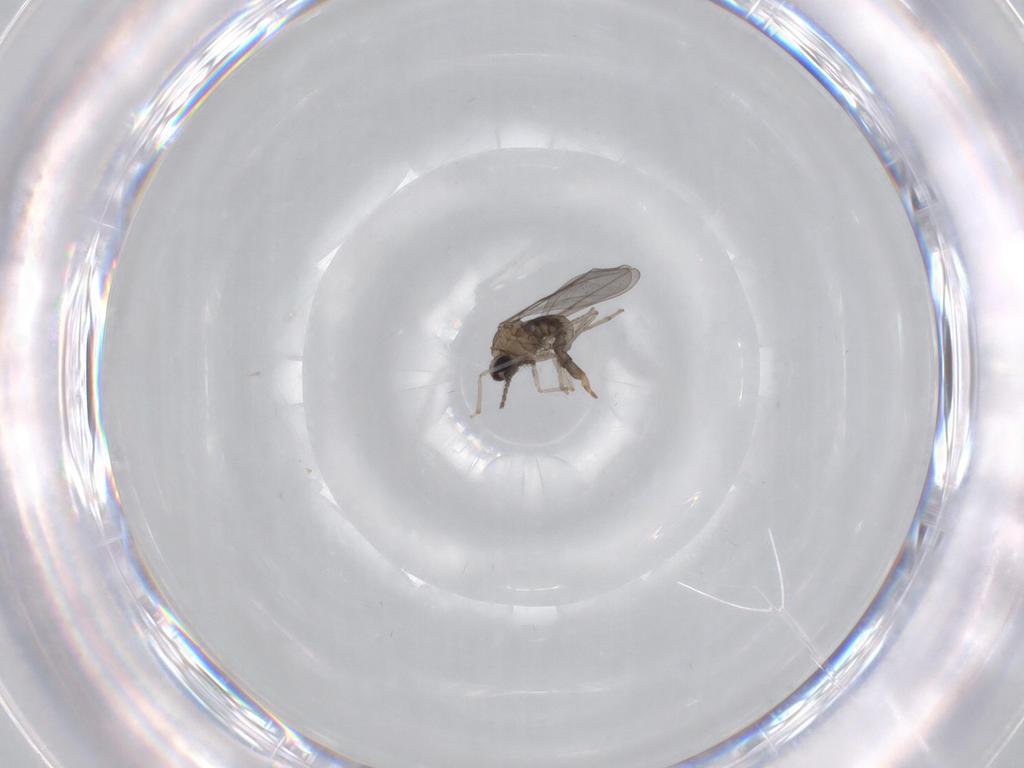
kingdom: Animalia
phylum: Arthropoda
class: Insecta
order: Diptera
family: Cecidomyiidae
